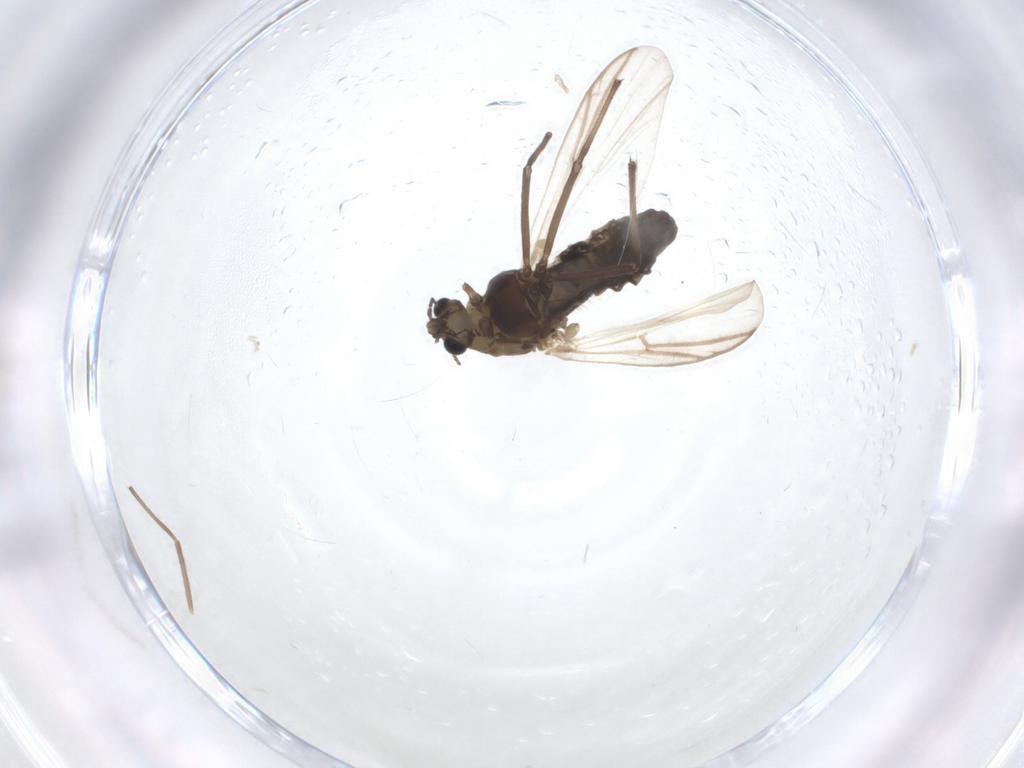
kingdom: Animalia
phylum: Arthropoda
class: Insecta
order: Diptera
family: Chironomidae
